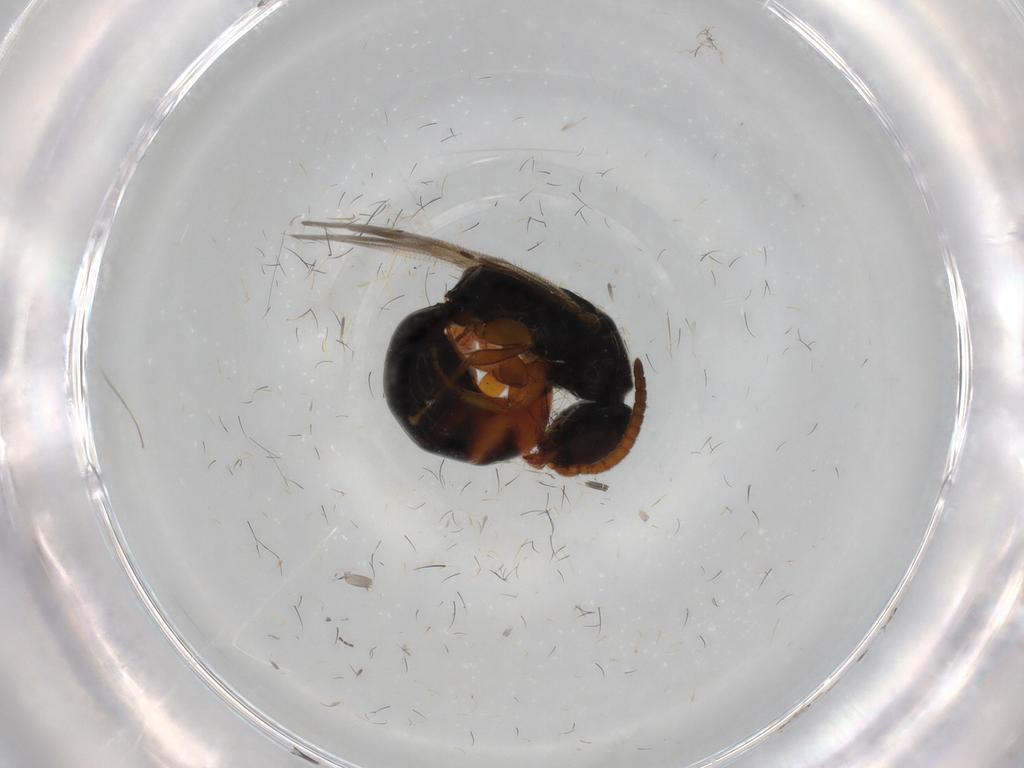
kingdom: Animalia
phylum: Arthropoda
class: Insecta
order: Hymenoptera
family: Bethylidae
